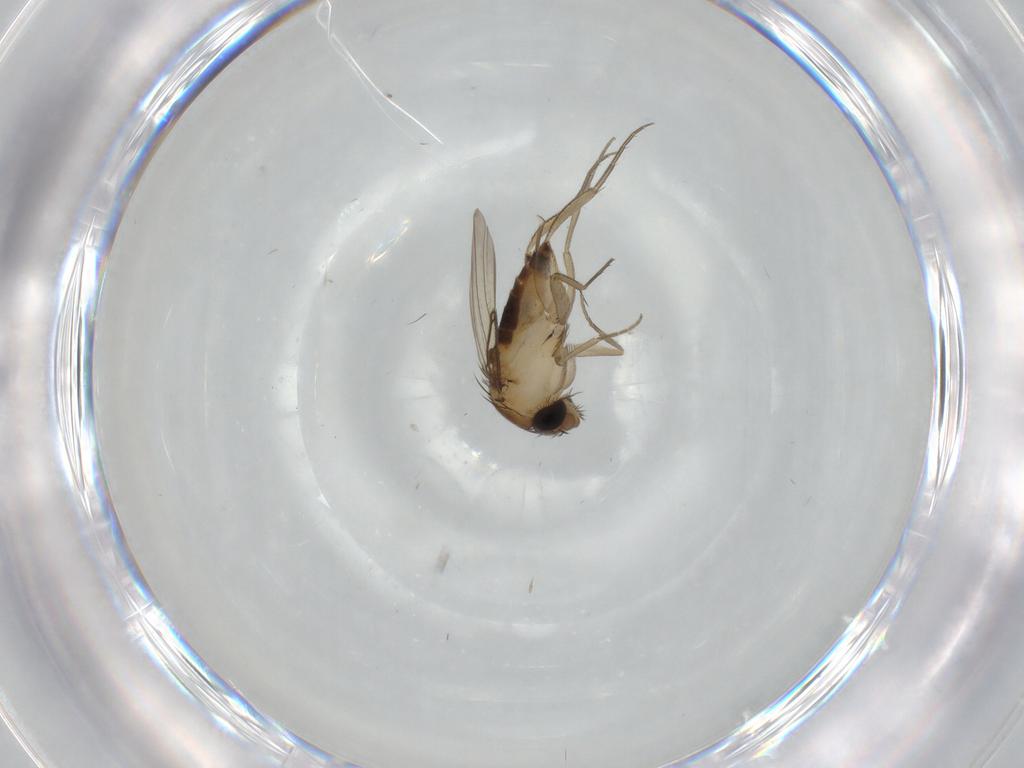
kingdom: Animalia
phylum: Arthropoda
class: Insecta
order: Diptera
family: Phoridae
